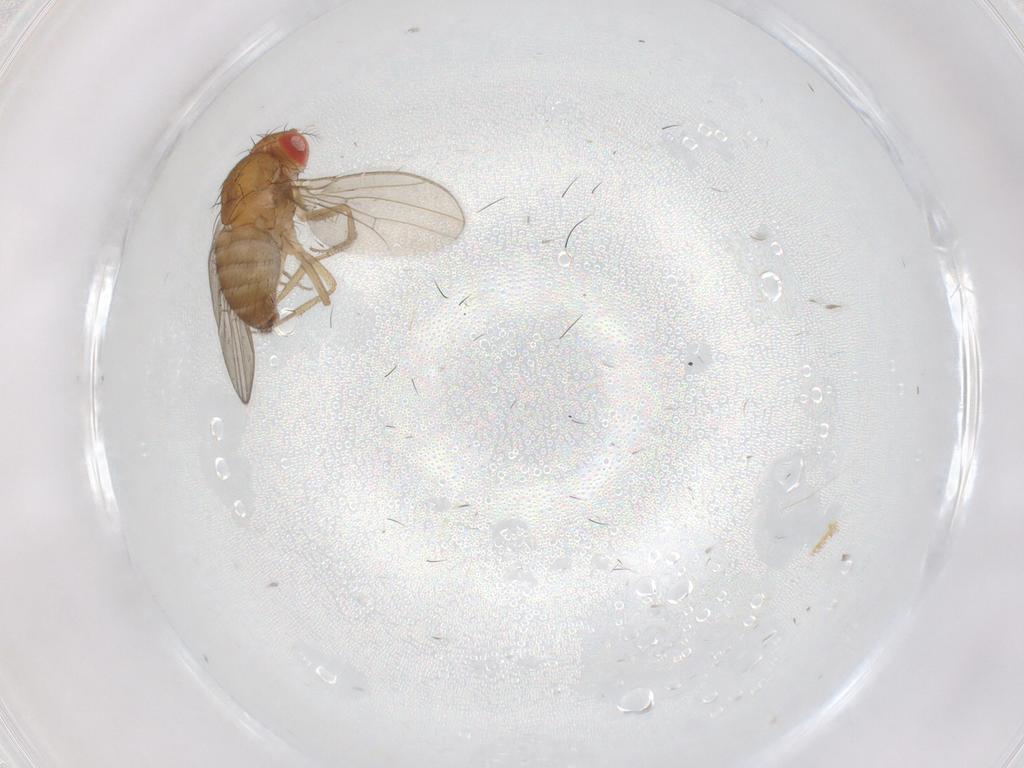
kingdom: Animalia
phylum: Arthropoda
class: Insecta
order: Diptera
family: Drosophilidae
